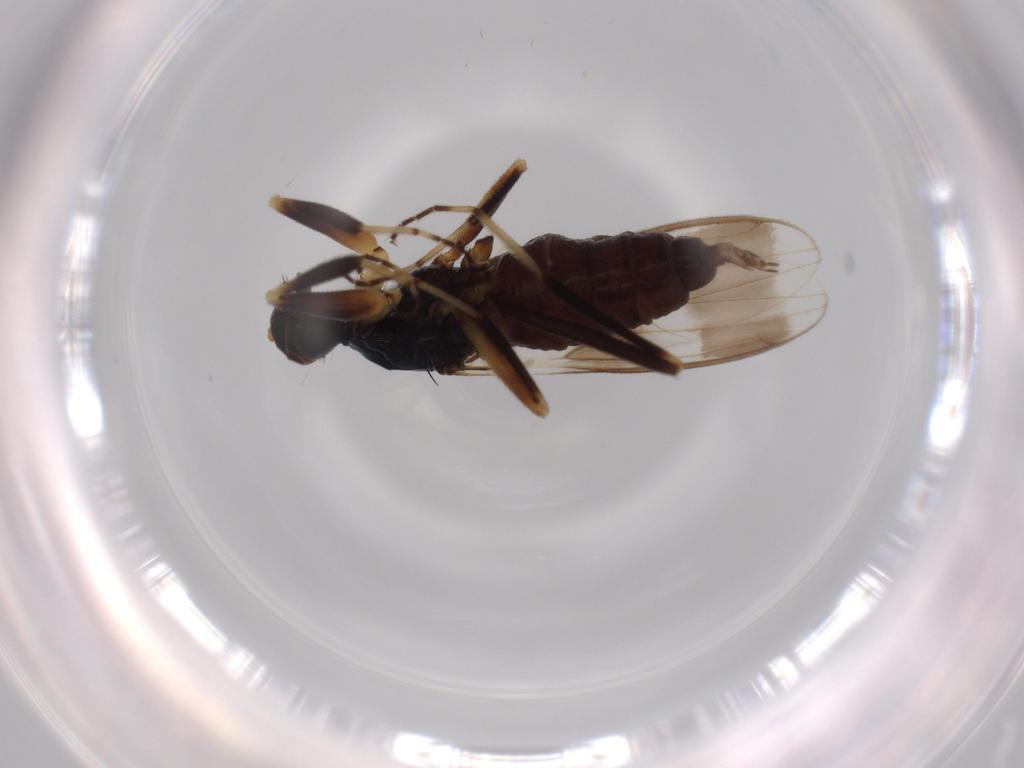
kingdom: Animalia
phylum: Arthropoda
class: Insecta
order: Diptera
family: Hybotidae
